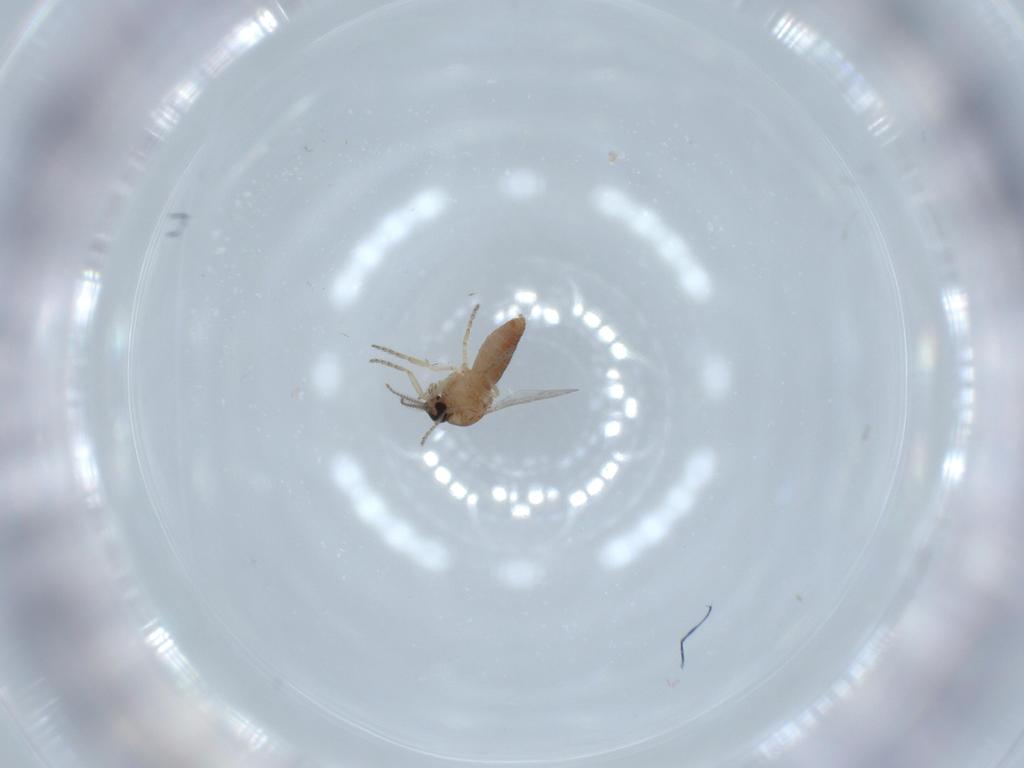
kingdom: Animalia
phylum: Arthropoda
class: Insecta
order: Diptera
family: Ceratopogonidae
